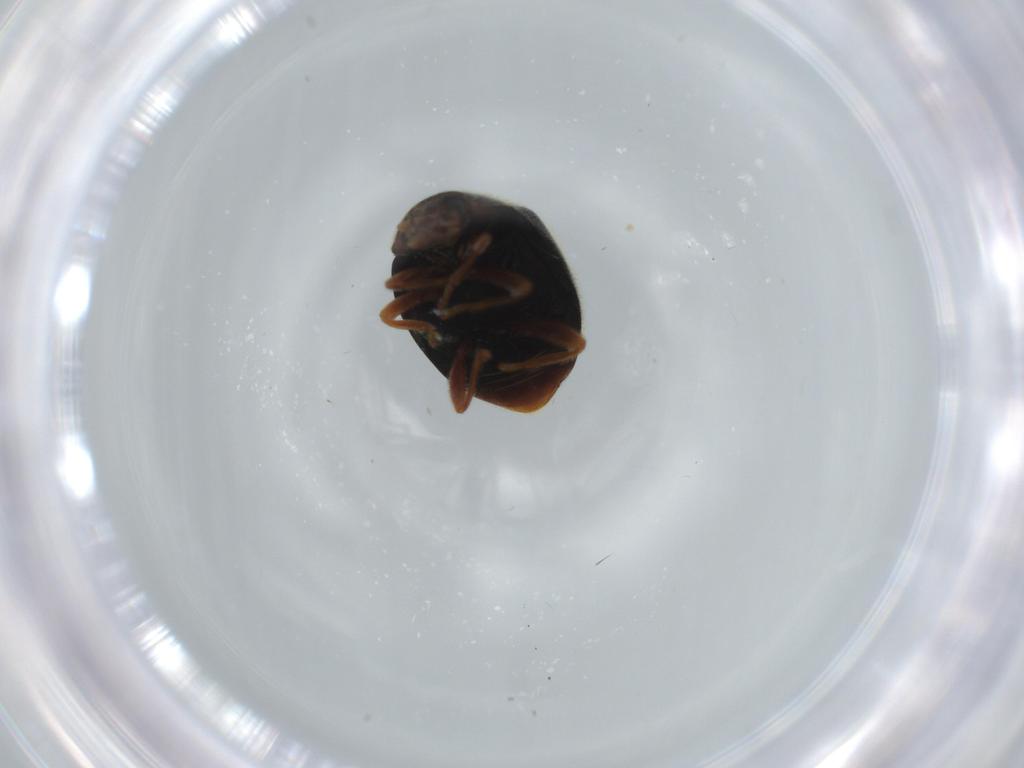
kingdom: Animalia
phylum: Arthropoda
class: Insecta
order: Coleoptera
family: Coccinellidae
